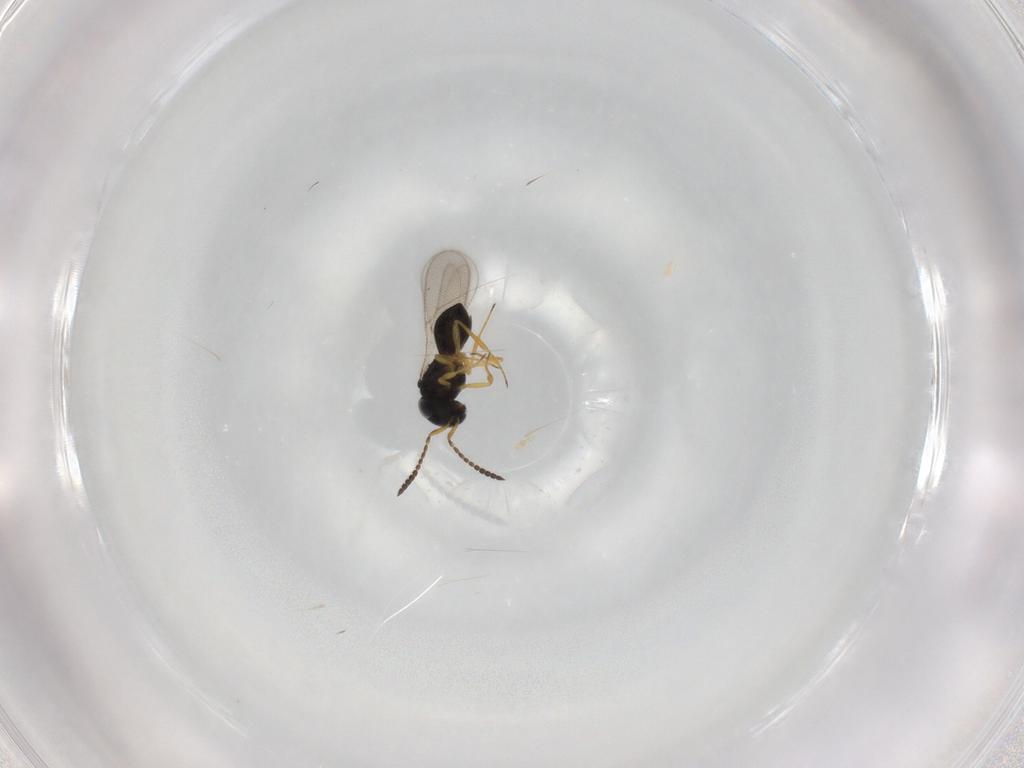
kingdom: Animalia
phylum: Arthropoda
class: Insecta
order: Hymenoptera
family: Scelionidae
